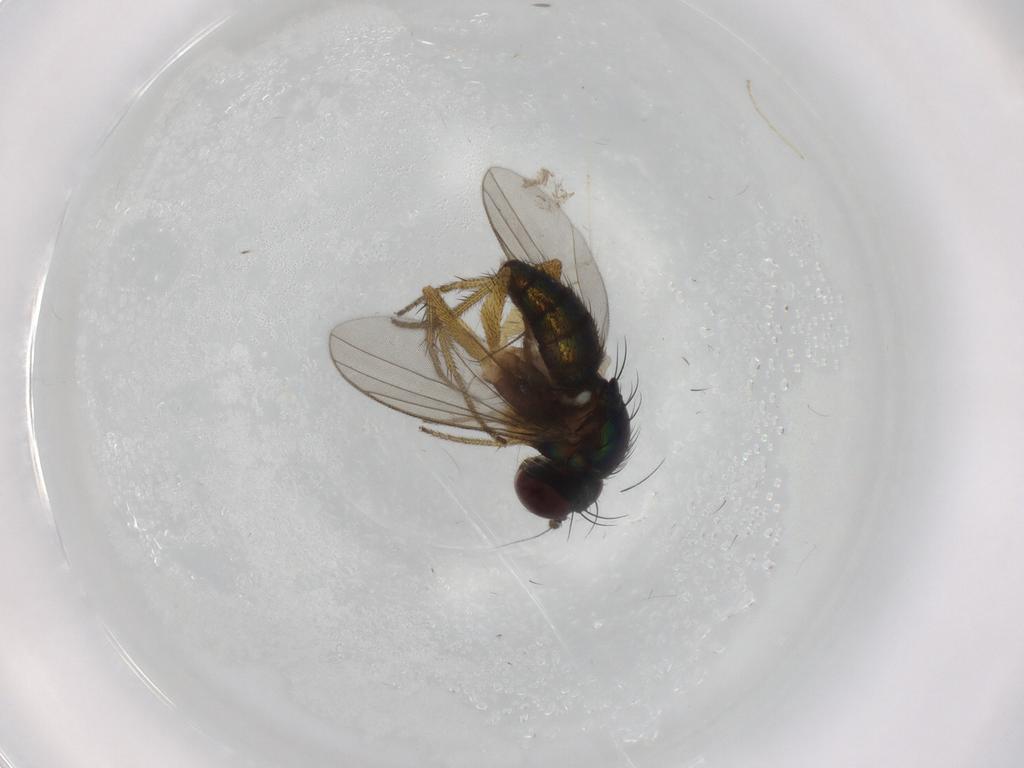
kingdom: Animalia
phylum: Arthropoda
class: Insecta
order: Diptera
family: Chironomidae
